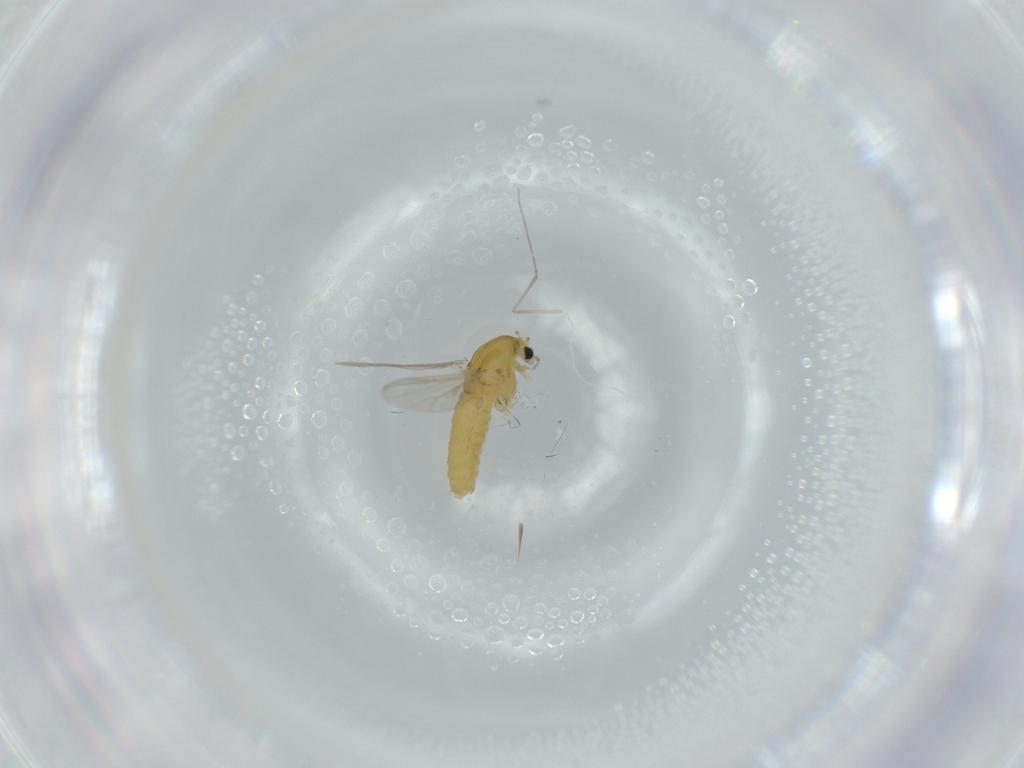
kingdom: Animalia
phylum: Arthropoda
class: Insecta
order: Diptera
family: Chironomidae
